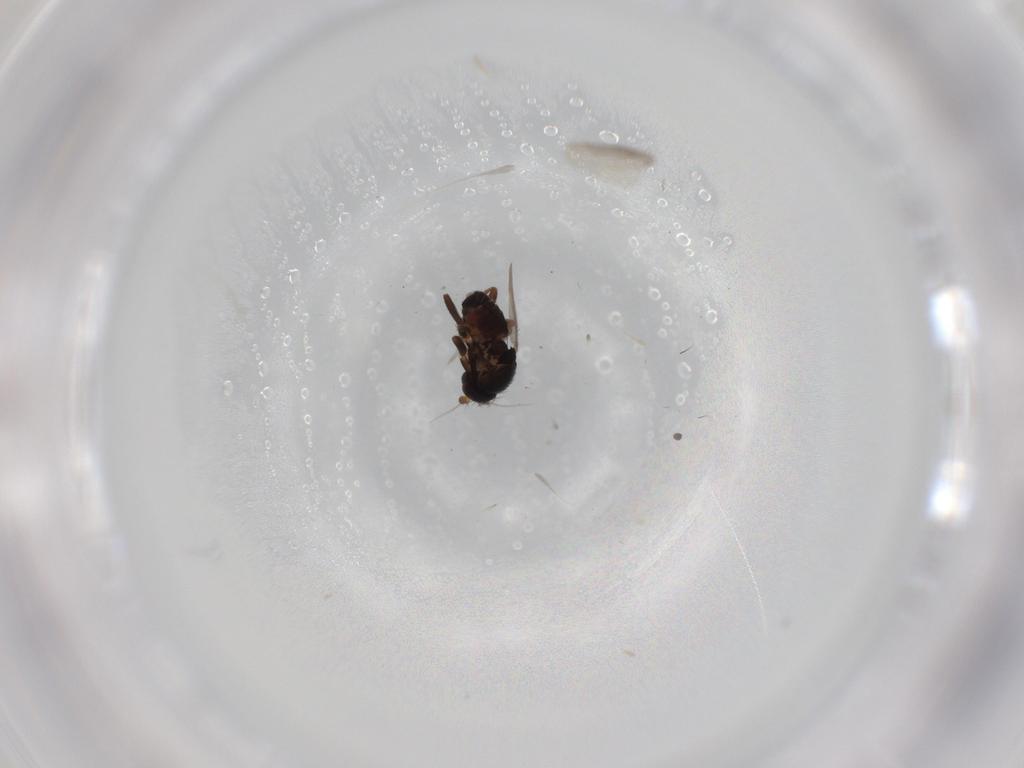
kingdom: Animalia
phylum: Arthropoda
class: Insecta
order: Diptera
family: Sphaeroceridae
